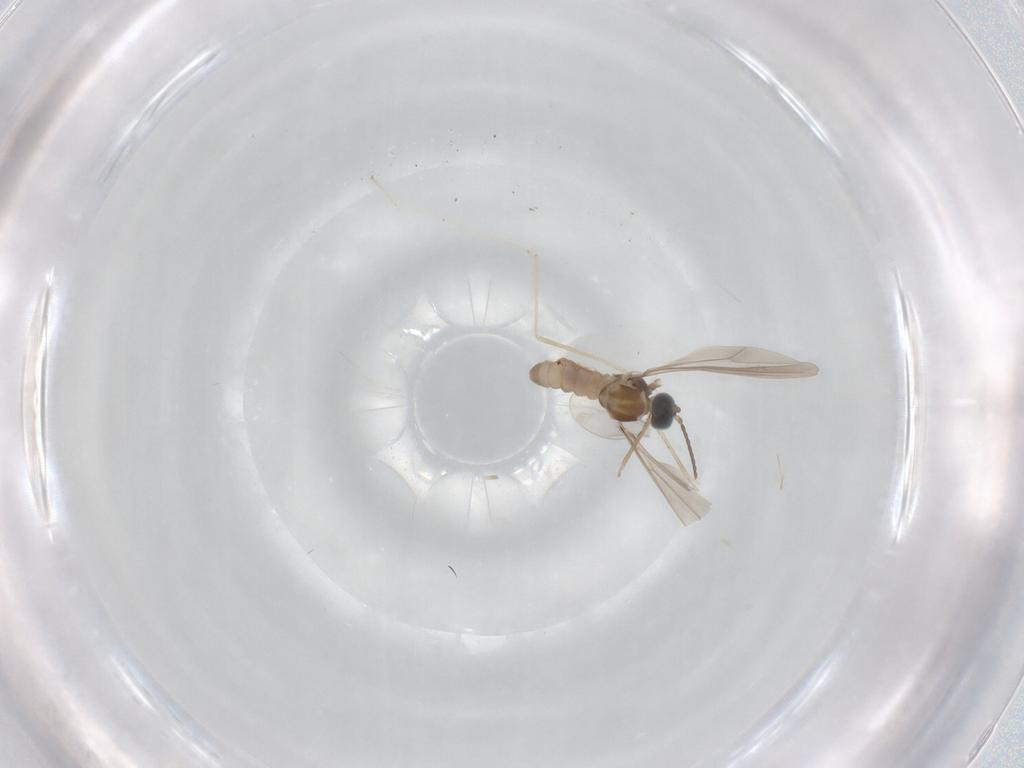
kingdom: Animalia
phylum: Arthropoda
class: Insecta
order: Diptera
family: Cecidomyiidae
